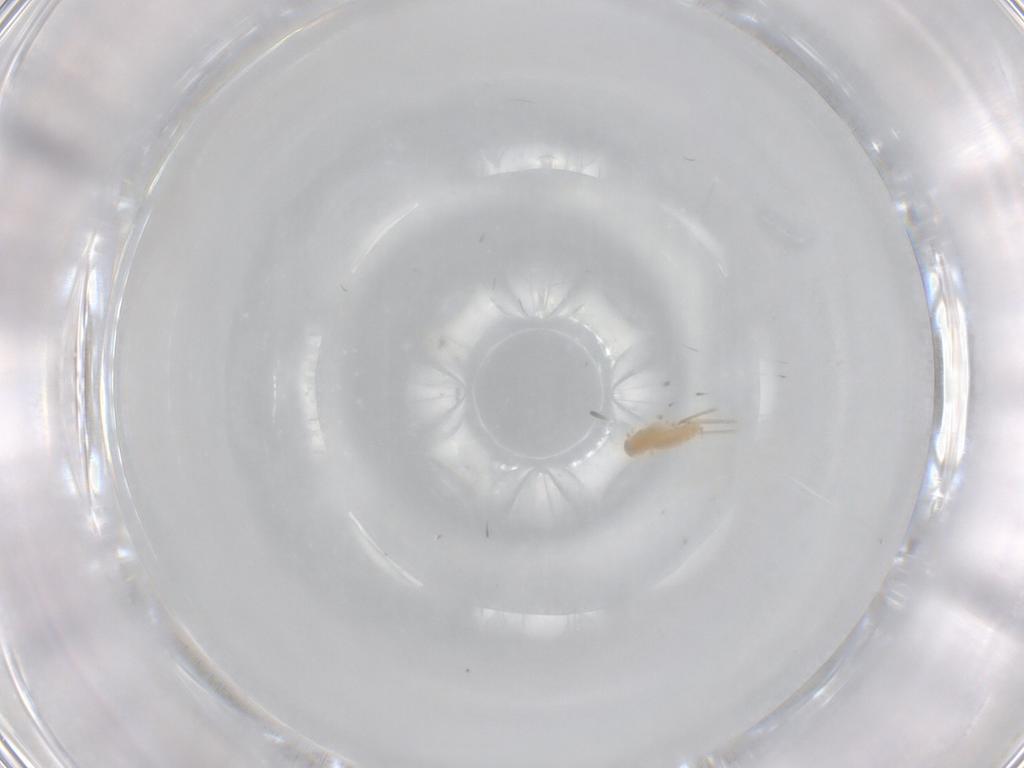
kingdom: Animalia
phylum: Arthropoda
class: Insecta
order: Diptera
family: Cecidomyiidae
